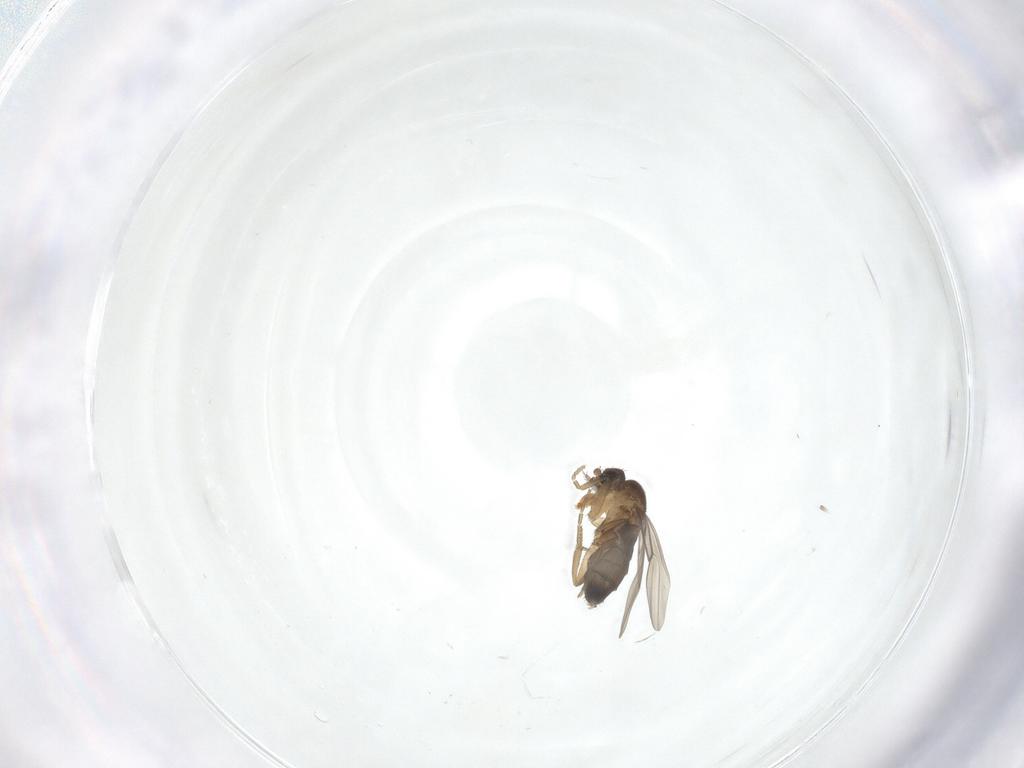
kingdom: Animalia
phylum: Arthropoda
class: Insecta
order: Diptera
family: Phoridae
